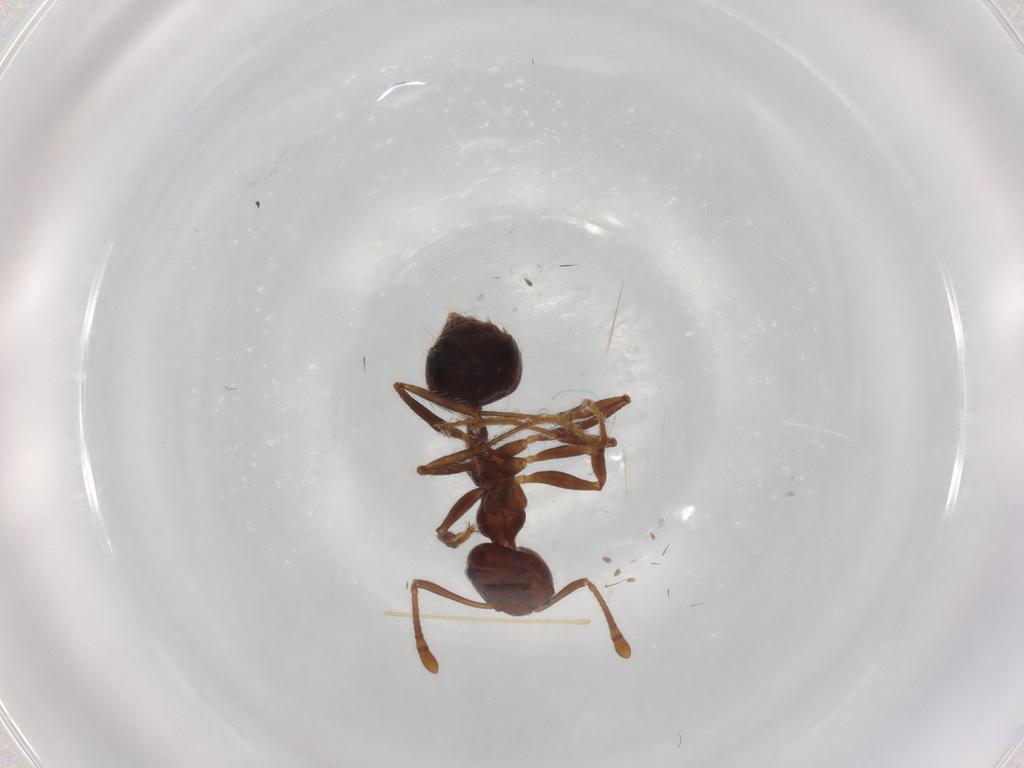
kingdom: Animalia
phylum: Arthropoda
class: Insecta
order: Hymenoptera
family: Formicidae
